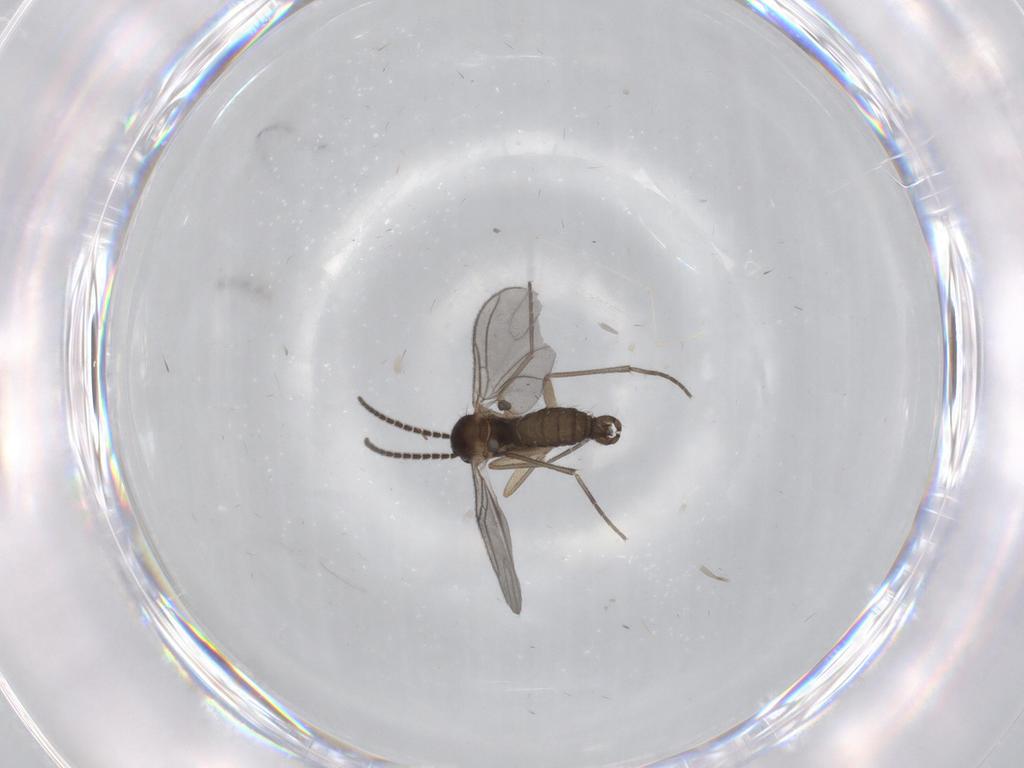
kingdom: Animalia
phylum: Arthropoda
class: Insecta
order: Diptera
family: Sciaridae
